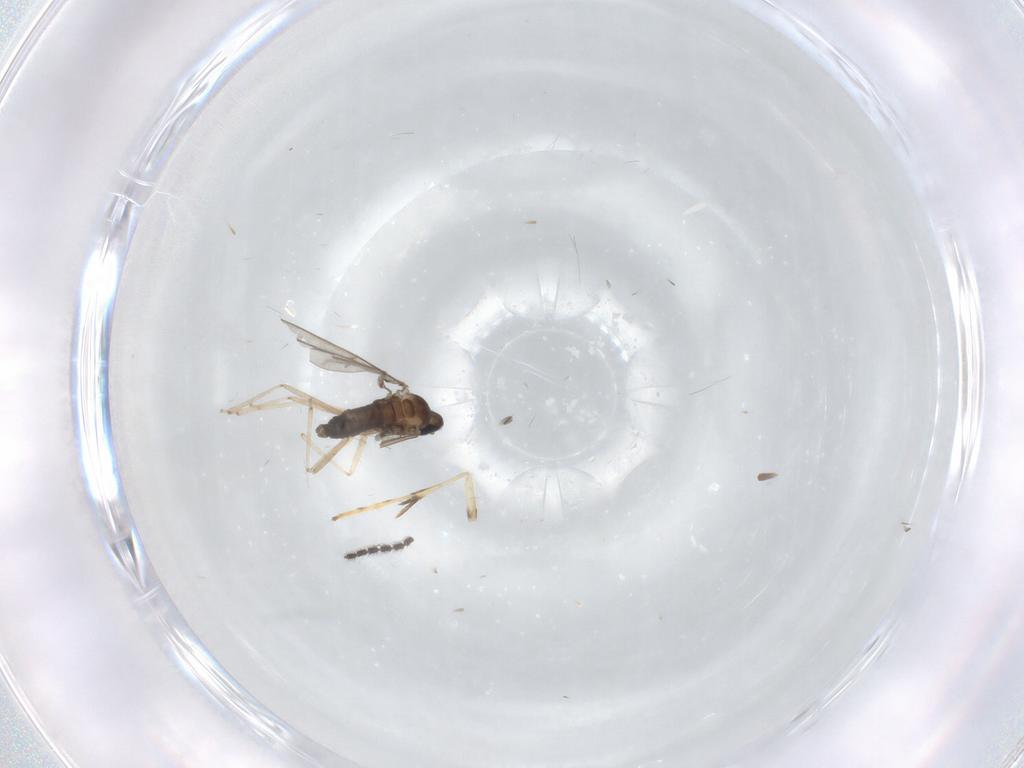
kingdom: Animalia
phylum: Arthropoda
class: Insecta
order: Diptera
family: Cecidomyiidae
